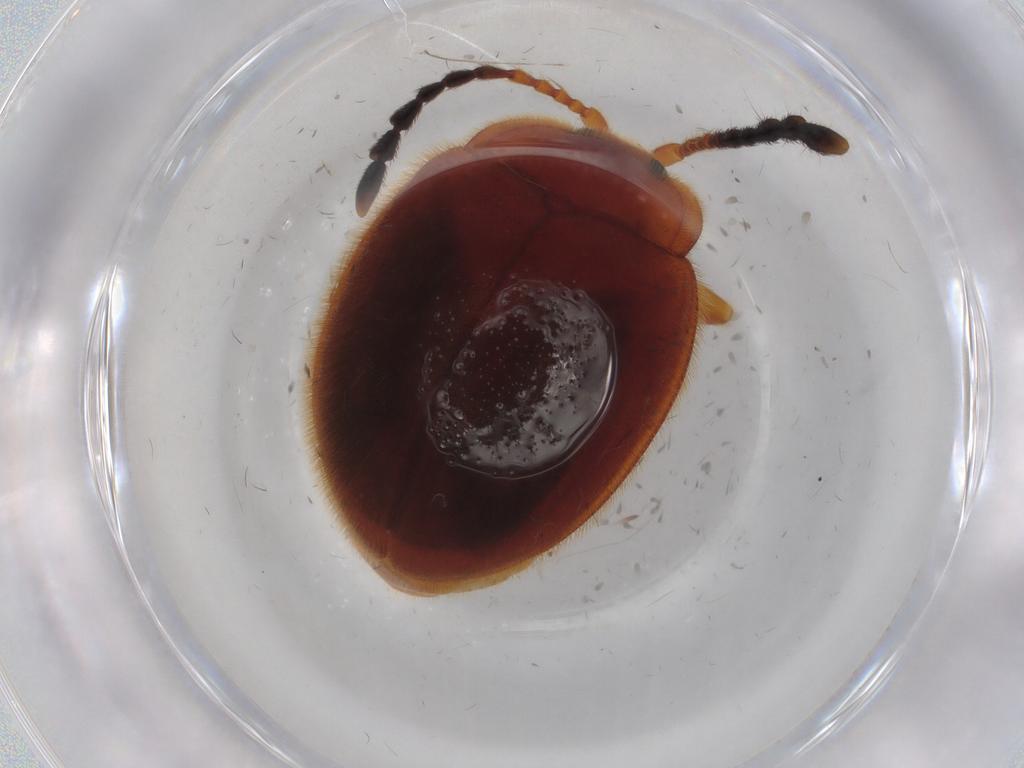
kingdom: Animalia
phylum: Arthropoda
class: Insecta
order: Coleoptera
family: Endomychidae
